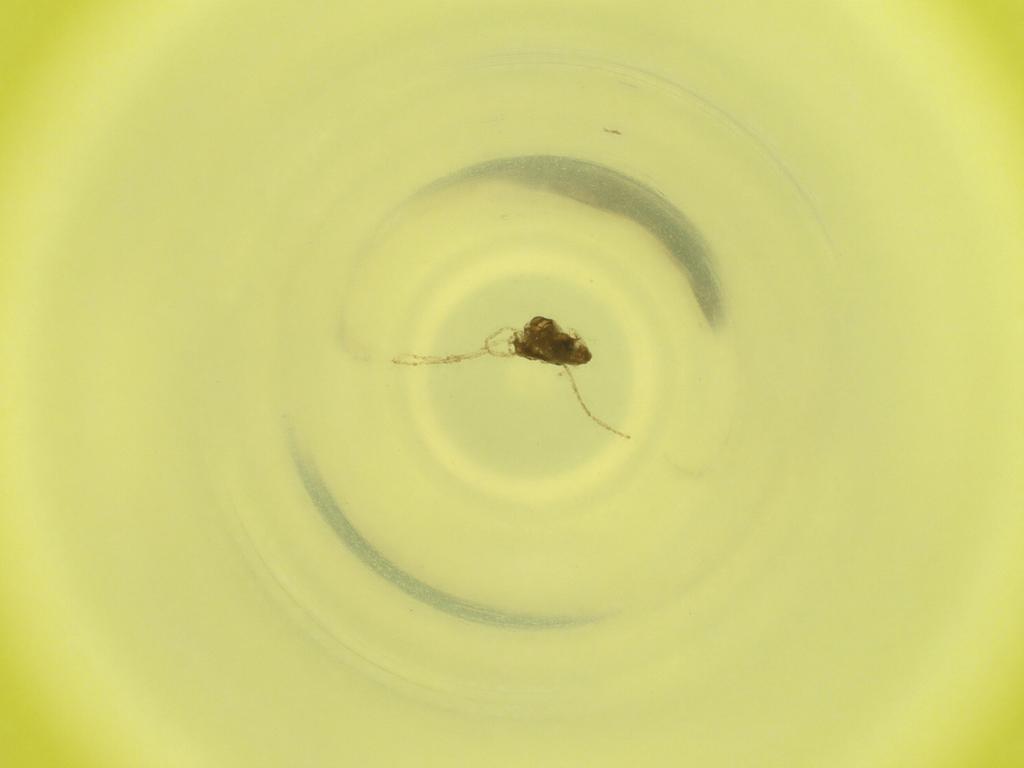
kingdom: Animalia
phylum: Arthropoda
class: Insecta
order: Diptera
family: Cecidomyiidae
